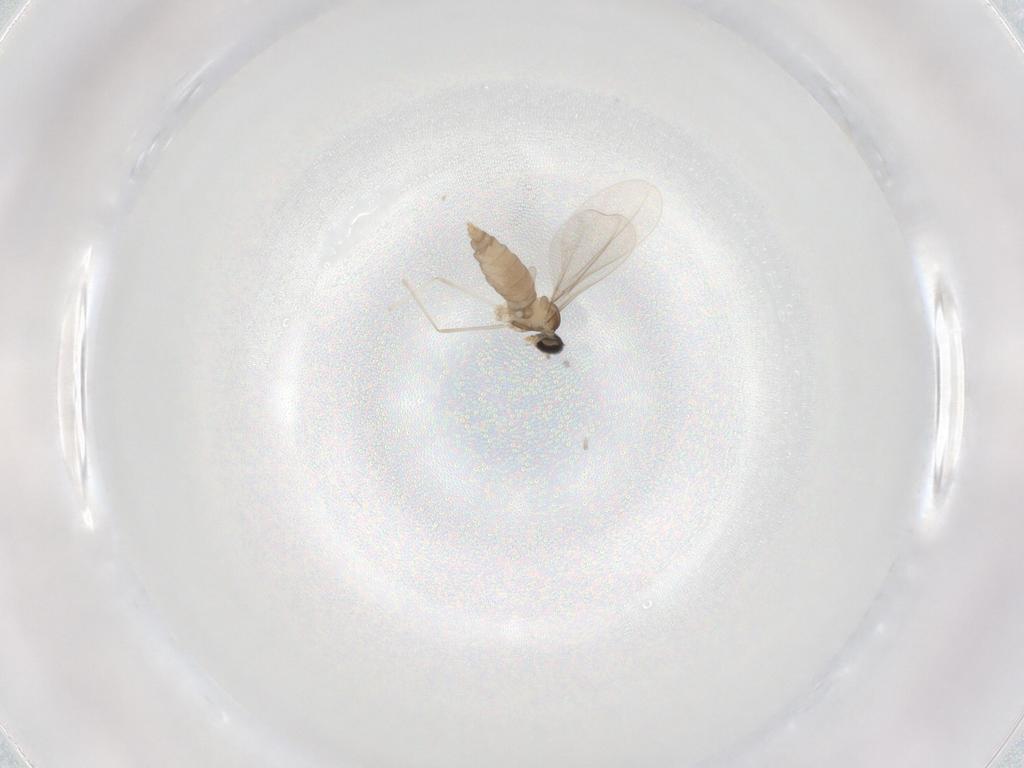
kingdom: Animalia
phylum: Arthropoda
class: Insecta
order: Diptera
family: Cecidomyiidae
